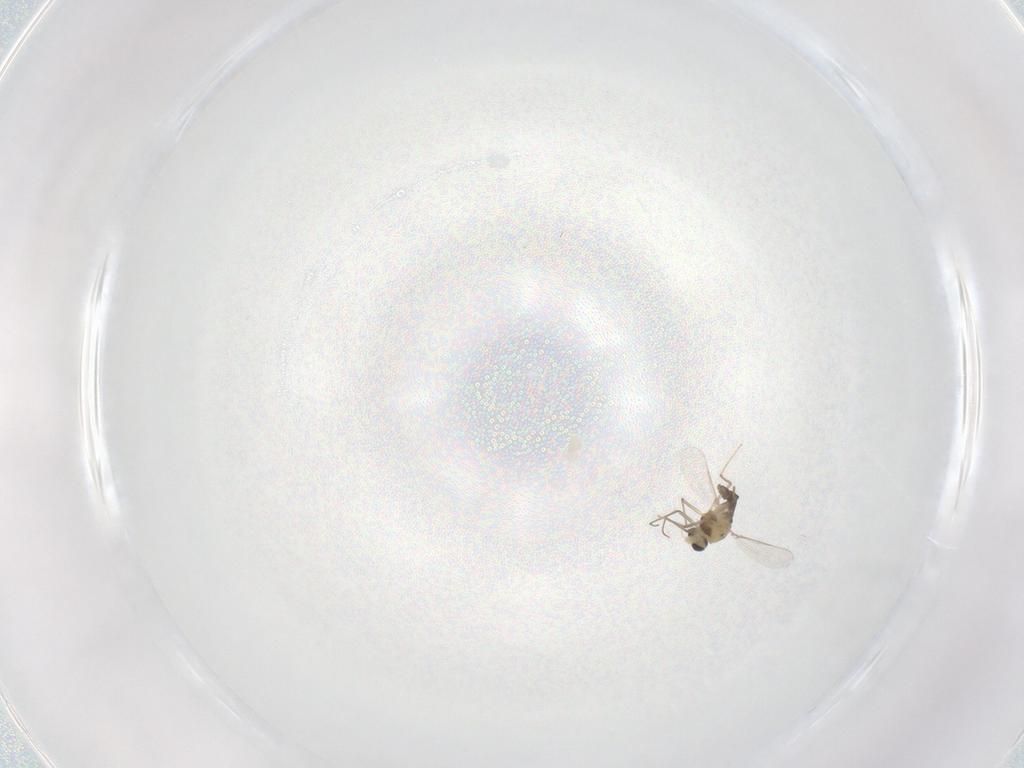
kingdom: Animalia
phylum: Arthropoda
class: Insecta
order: Diptera
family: Chironomidae
